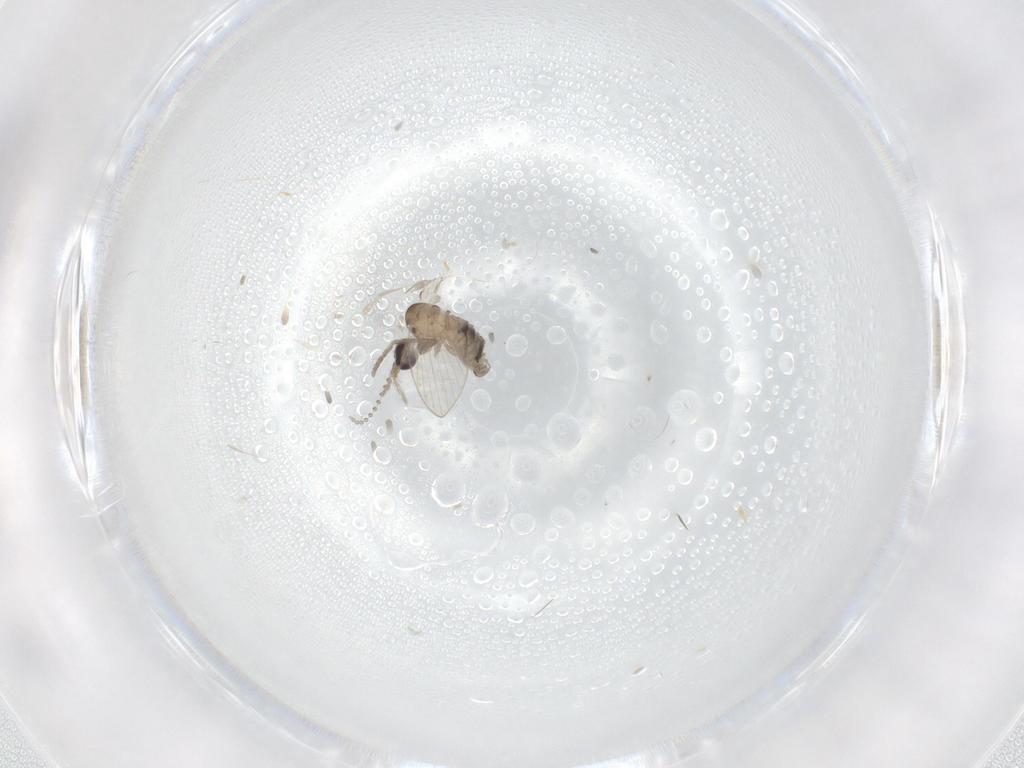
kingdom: Animalia
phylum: Arthropoda
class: Insecta
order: Diptera
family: Psychodidae
